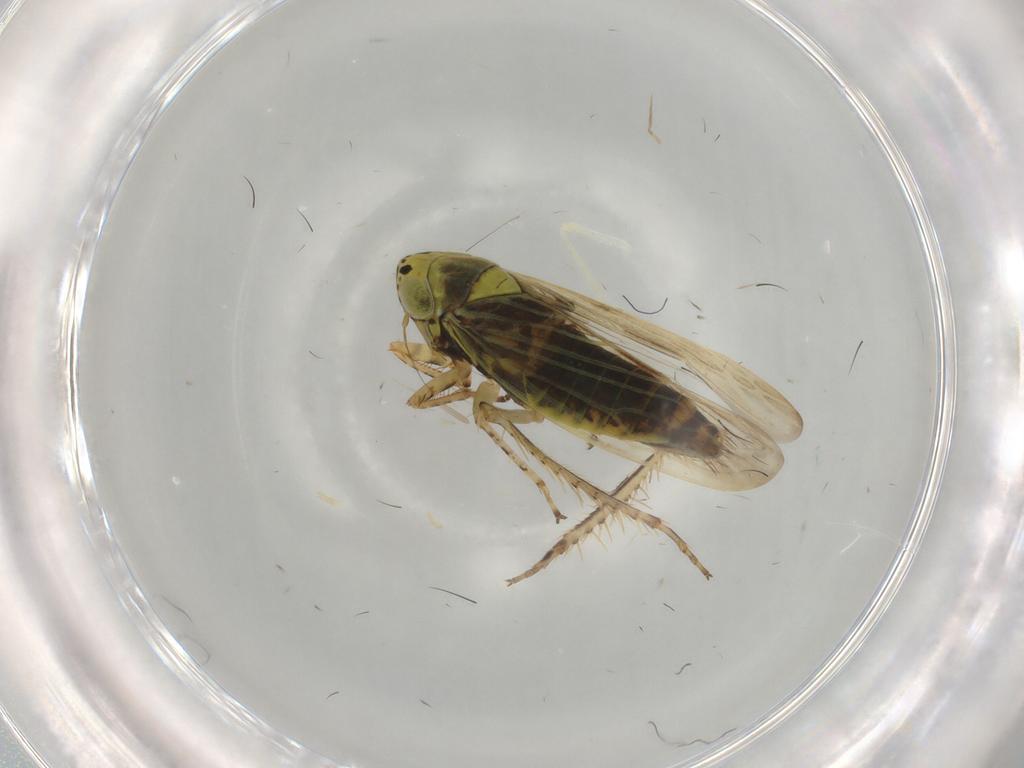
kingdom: Animalia
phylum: Arthropoda
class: Insecta
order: Hemiptera
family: Cicadellidae
